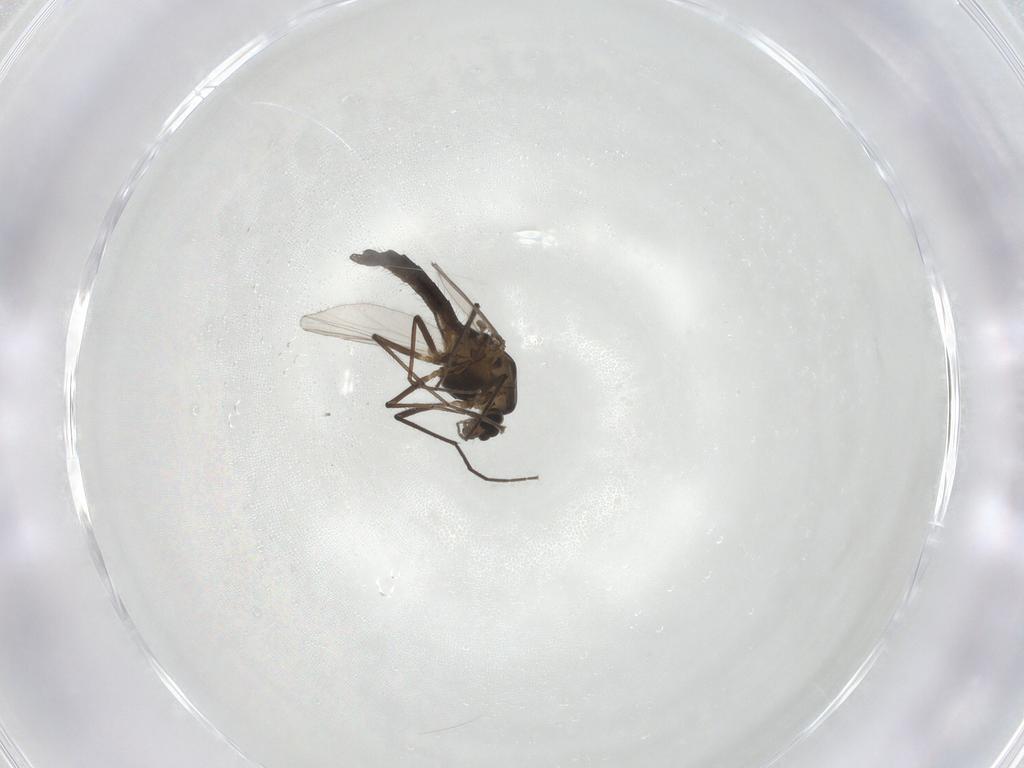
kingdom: Animalia
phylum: Arthropoda
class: Insecta
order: Diptera
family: Chironomidae
